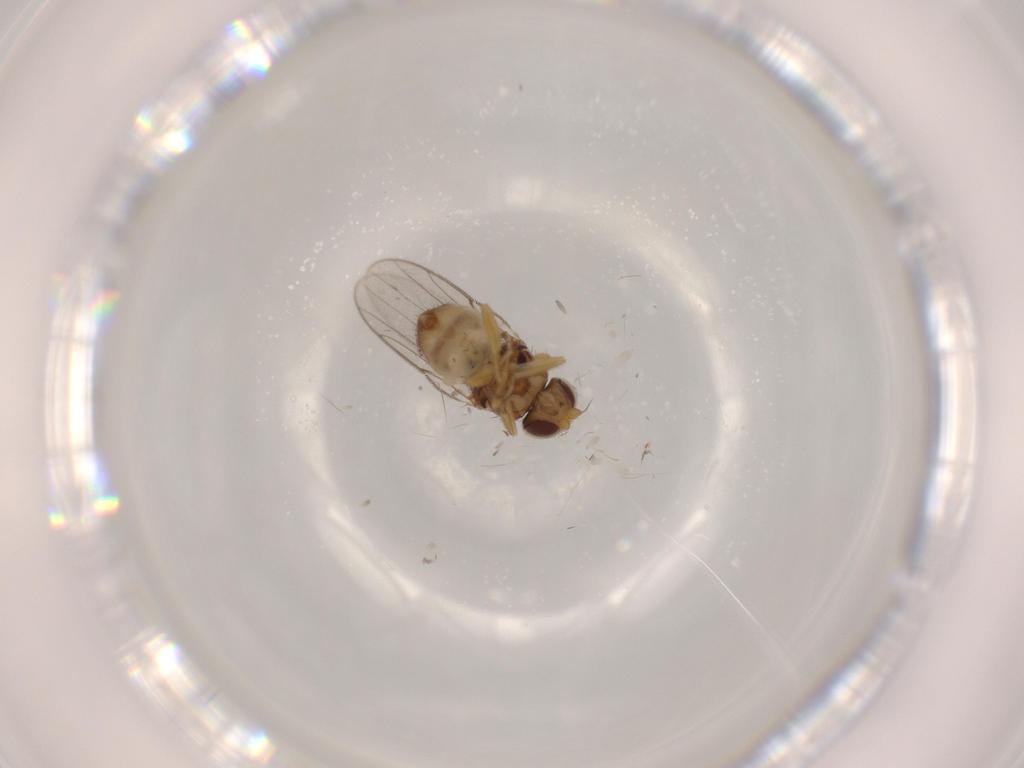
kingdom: Animalia
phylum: Arthropoda
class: Insecta
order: Diptera
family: Chloropidae
